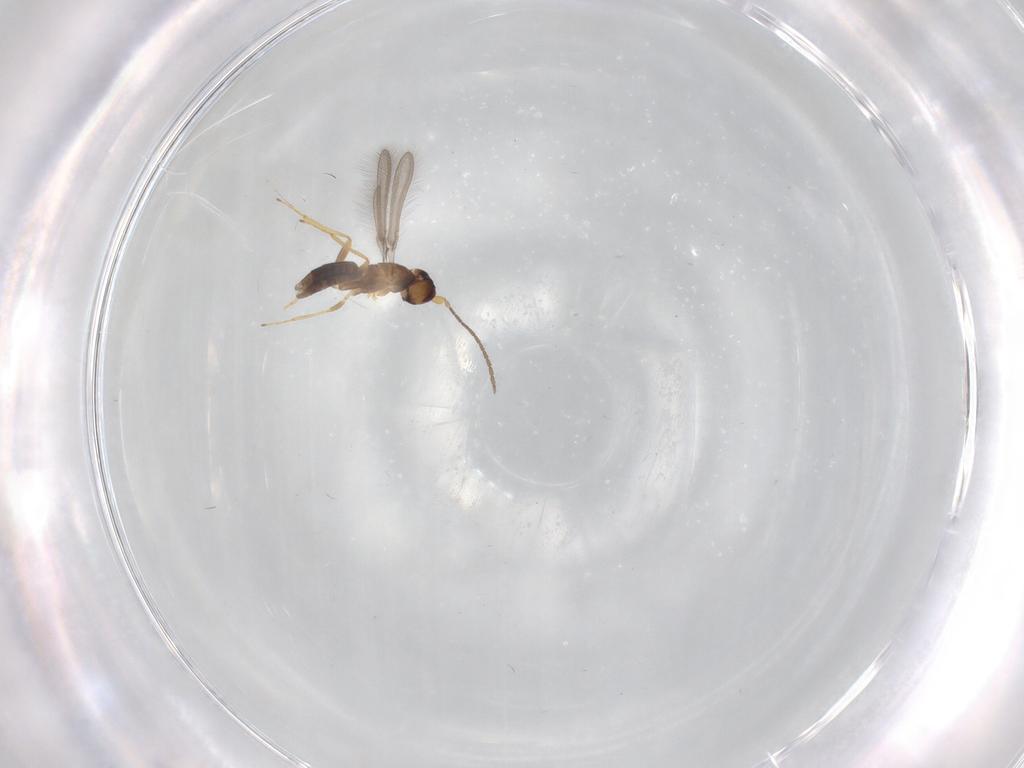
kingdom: Animalia
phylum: Arthropoda
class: Insecta
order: Hymenoptera
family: Mymaridae
